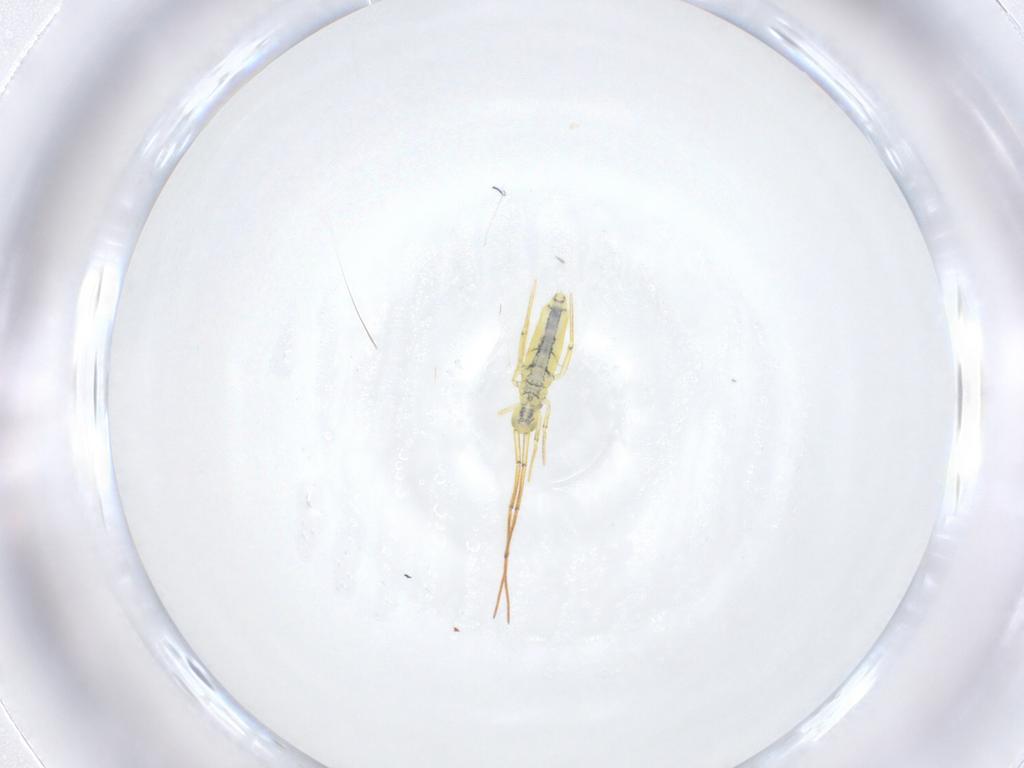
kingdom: Animalia
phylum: Arthropoda
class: Collembola
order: Entomobryomorpha
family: Entomobryidae
